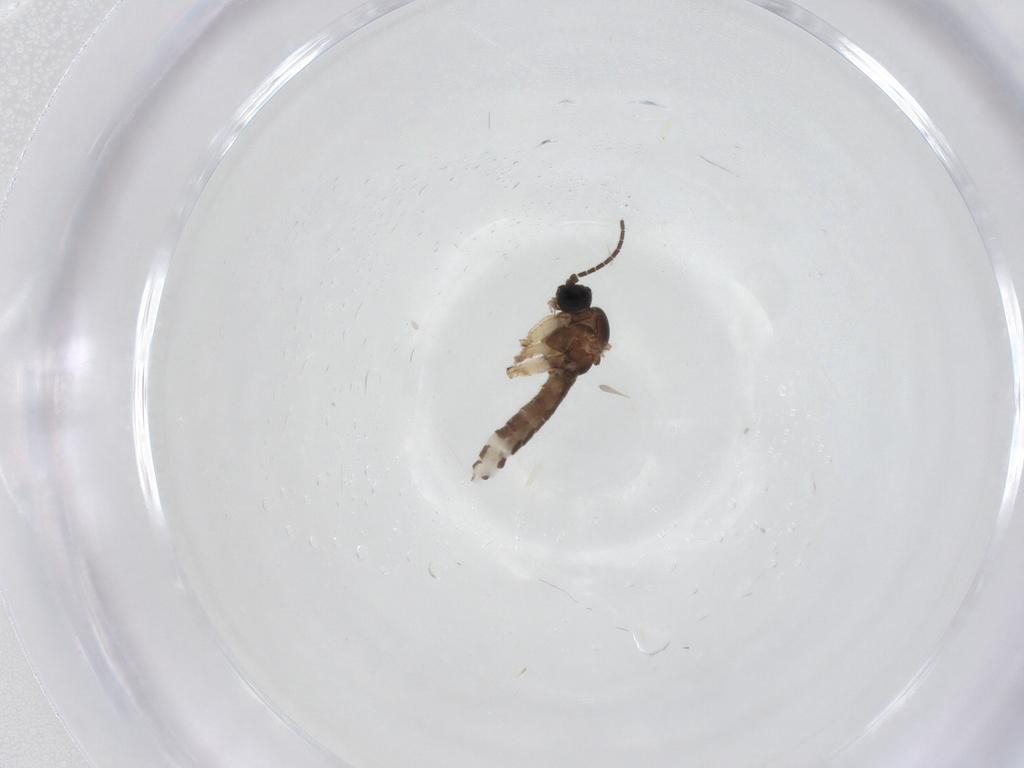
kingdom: Animalia
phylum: Arthropoda
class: Insecta
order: Diptera
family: Sciaridae
